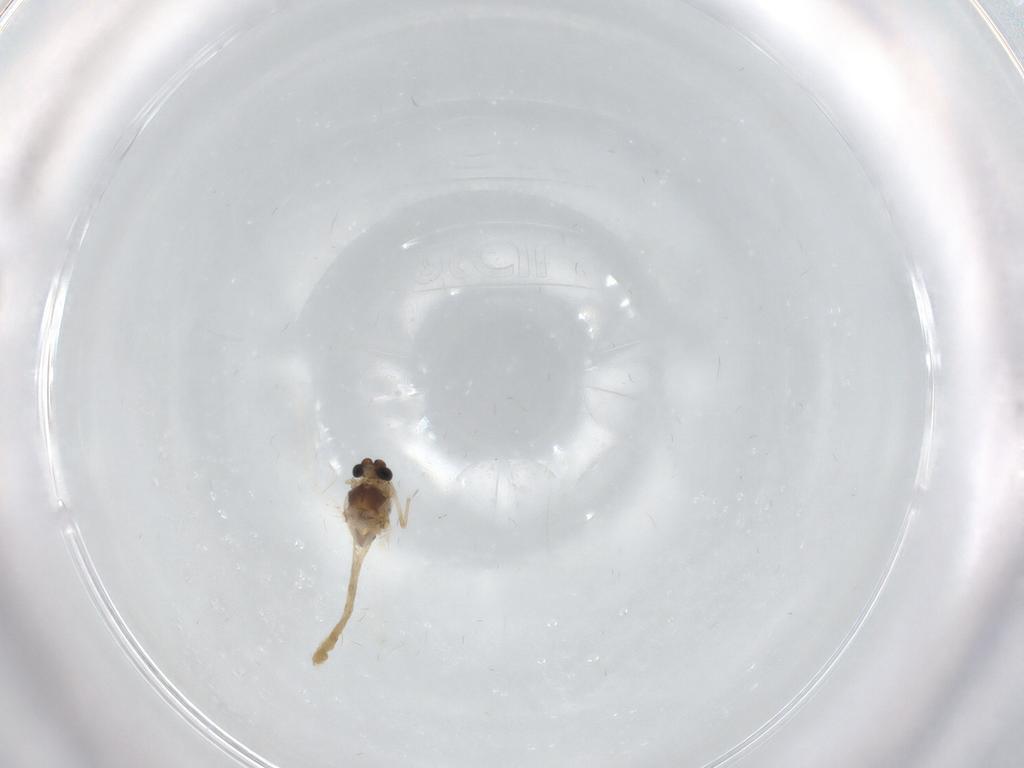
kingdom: Animalia
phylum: Arthropoda
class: Insecta
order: Diptera
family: Chironomidae
